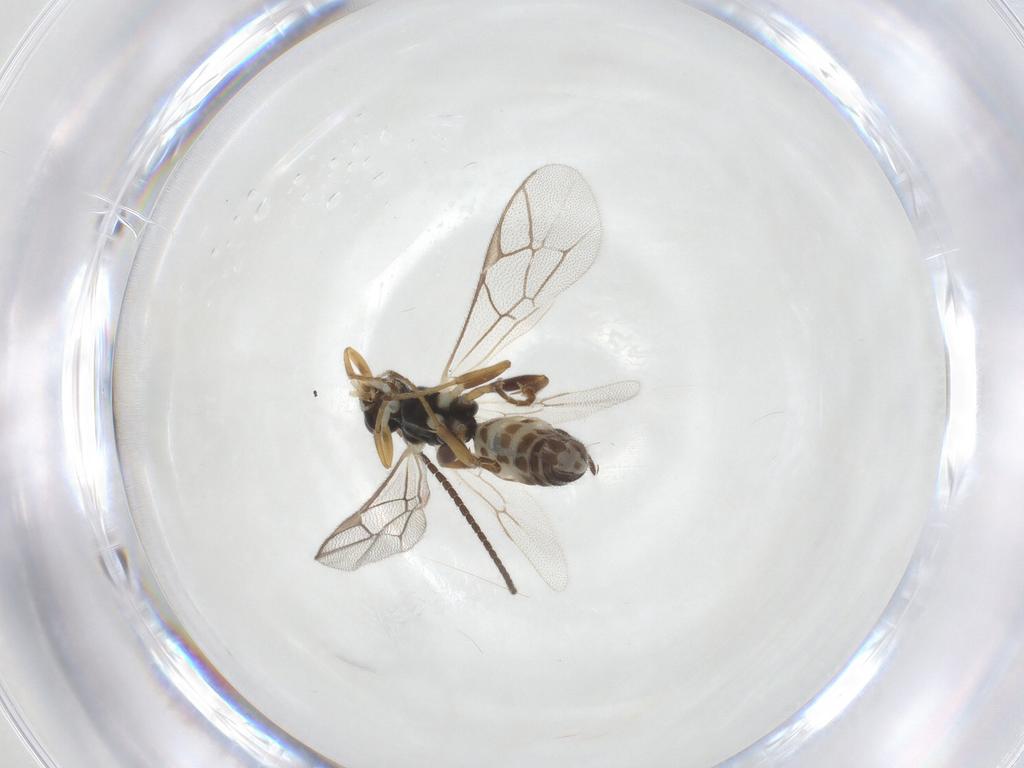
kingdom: Animalia
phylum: Arthropoda
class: Insecta
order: Hymenoptera
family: Ichneumonidae
